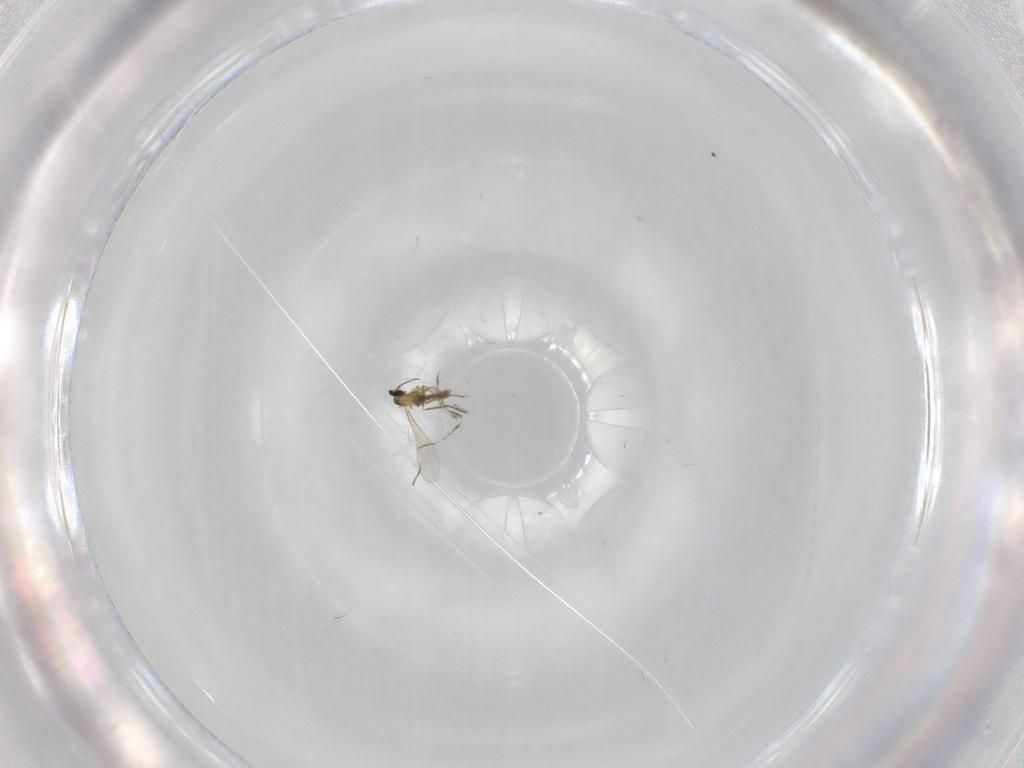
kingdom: Animalia
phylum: Arthropoda
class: Insecta
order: Diptera
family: Cecidomyiidae
